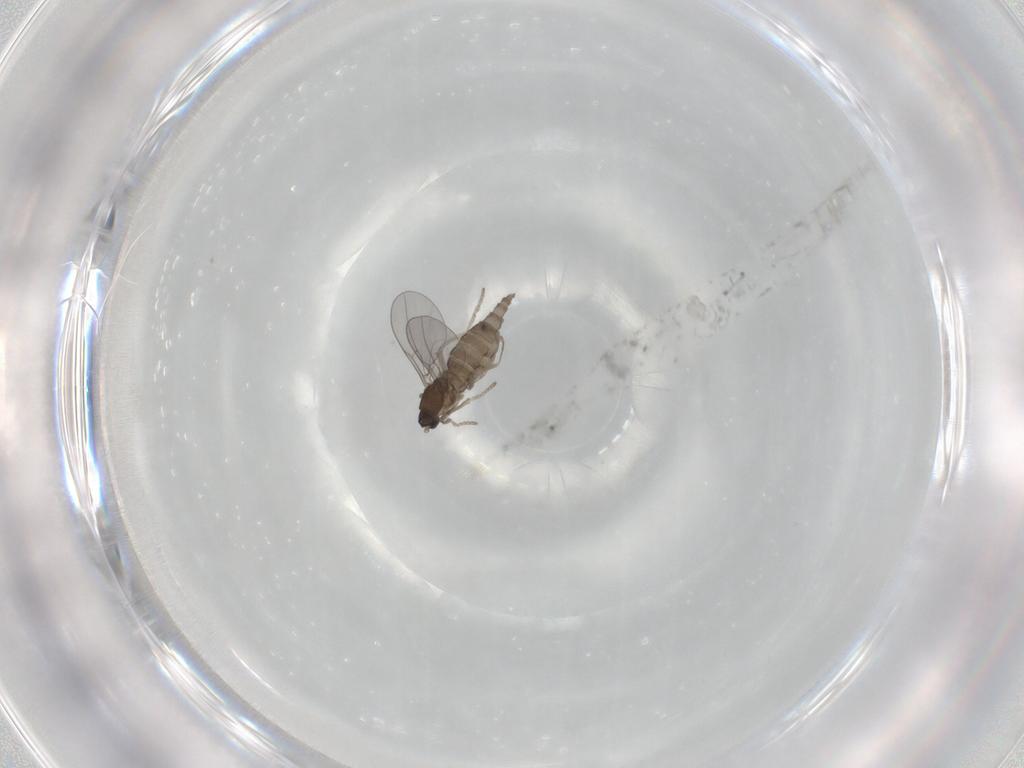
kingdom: Animalia
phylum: Arthropoda
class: Insecta
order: Diptera
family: Cecidomyiidae
